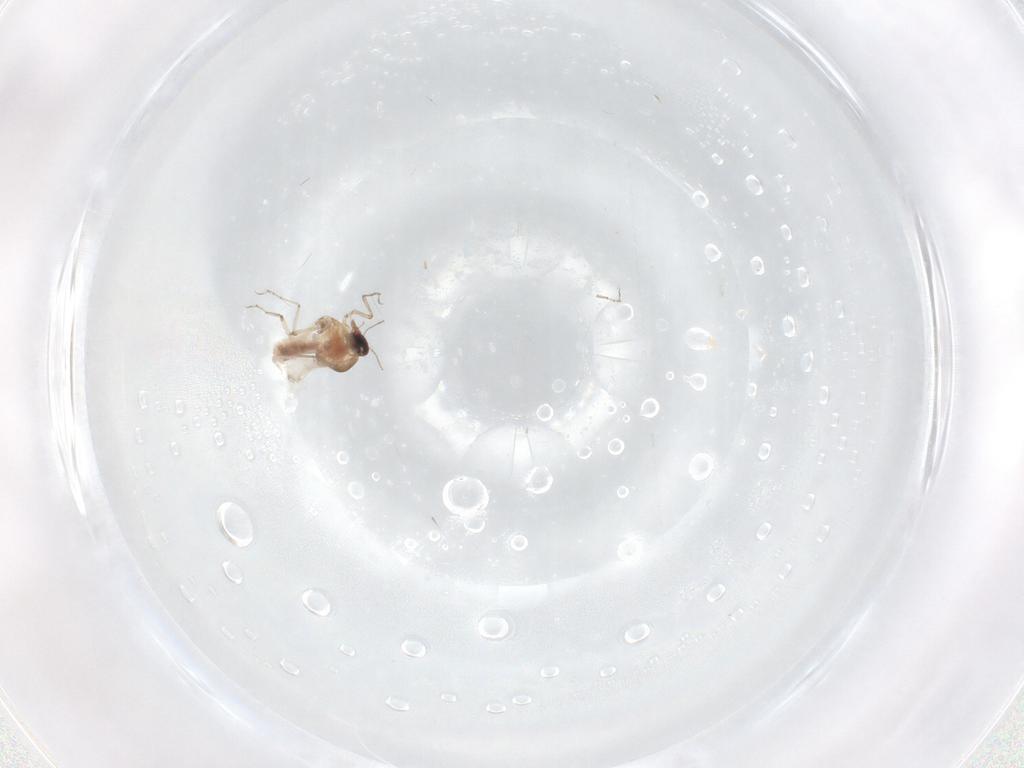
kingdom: Animalia
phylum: Arthropoda
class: Insecta
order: Diptera
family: Ceratopogonidae
